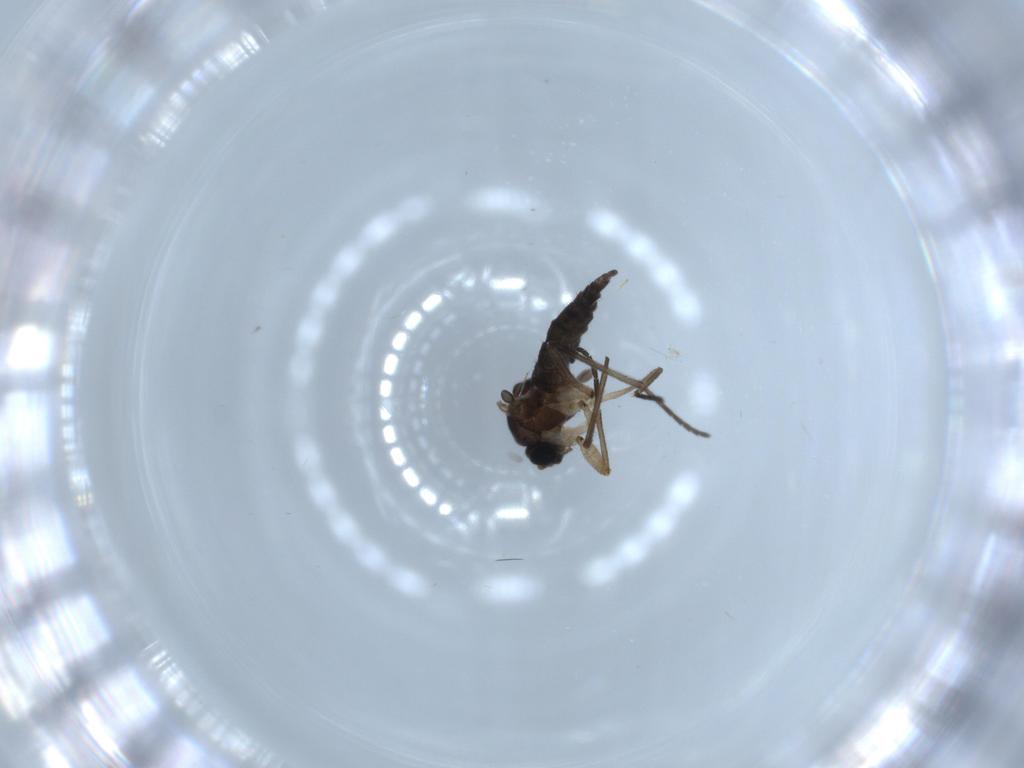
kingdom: Animalia
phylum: Arthropoda
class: Insecta
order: Diptera
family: Sciaridae
